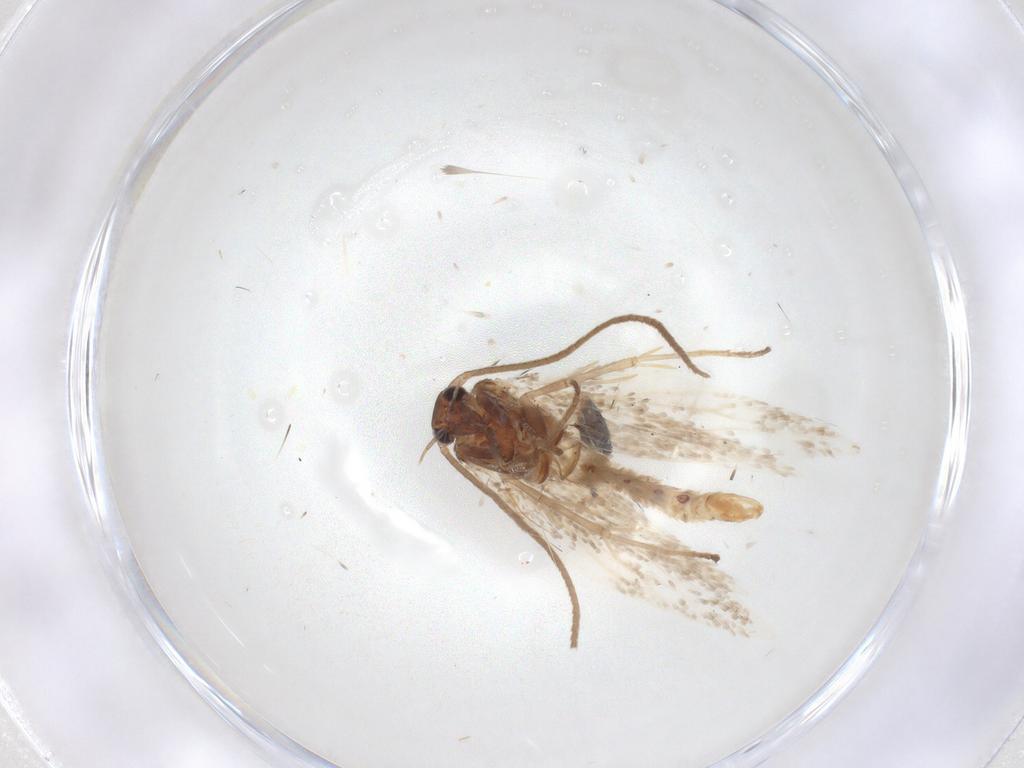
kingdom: Animalia
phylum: Arthropoda
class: Insecta
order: Lepidoptera
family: Elachistidae
